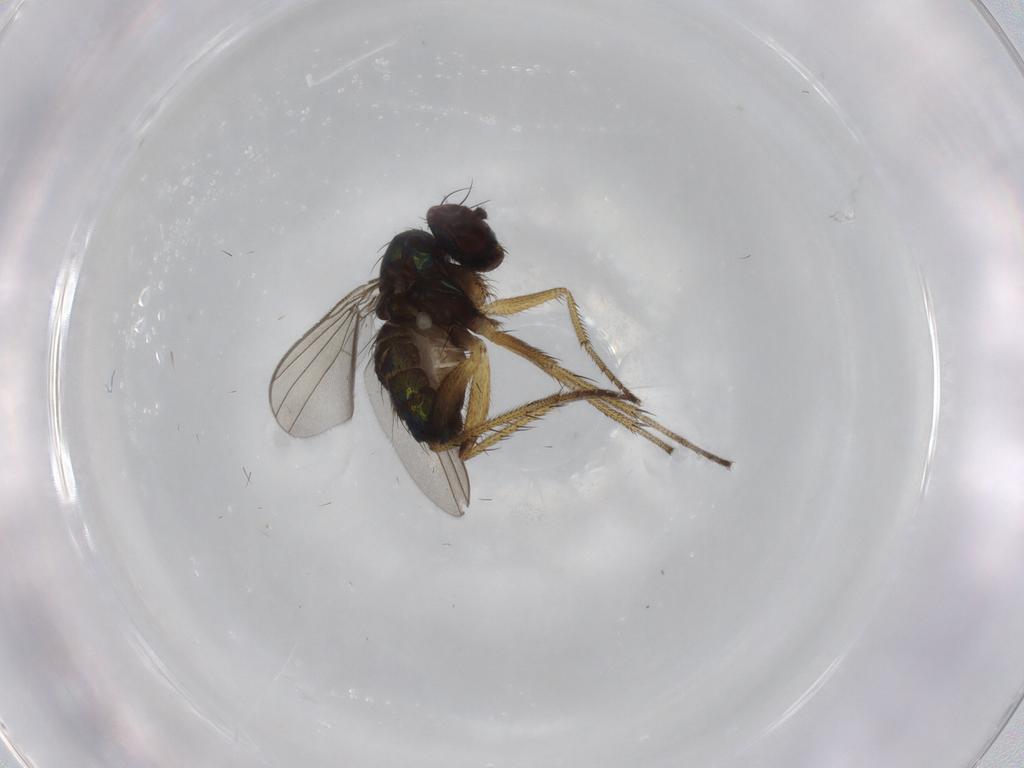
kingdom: Animalia
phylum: Arthropoda
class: Insecta
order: Diptera
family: Dolichopodidae
